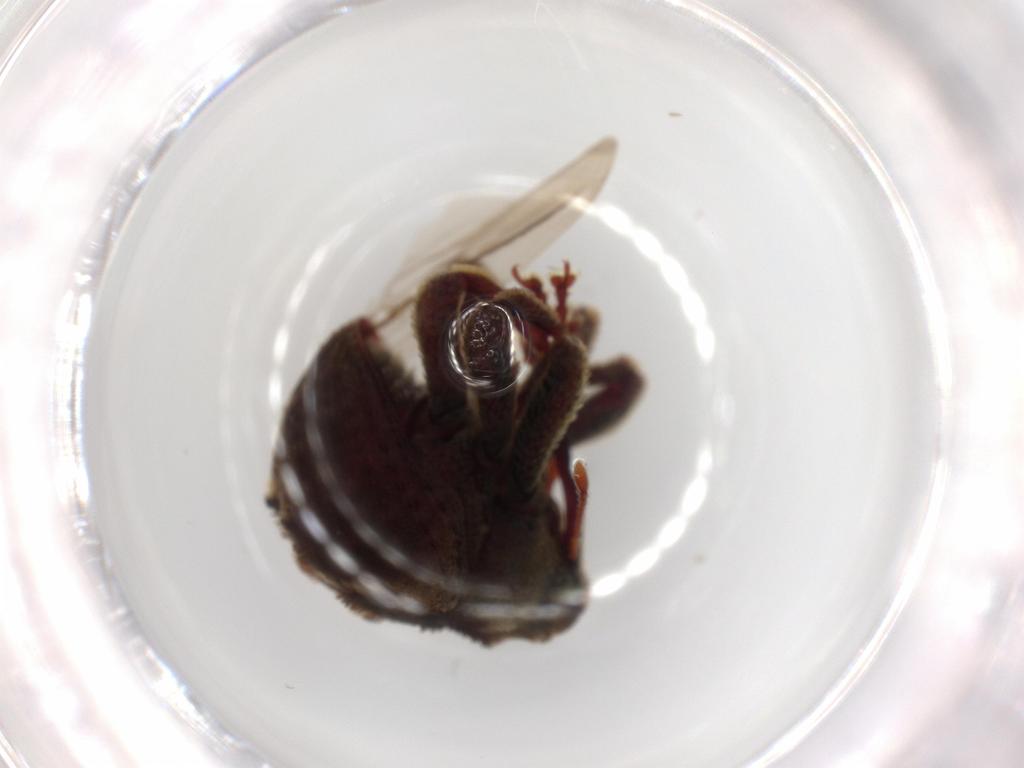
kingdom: Animalia
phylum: Arthropoda
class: Insecta
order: Coleoptera
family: Curculionidae
